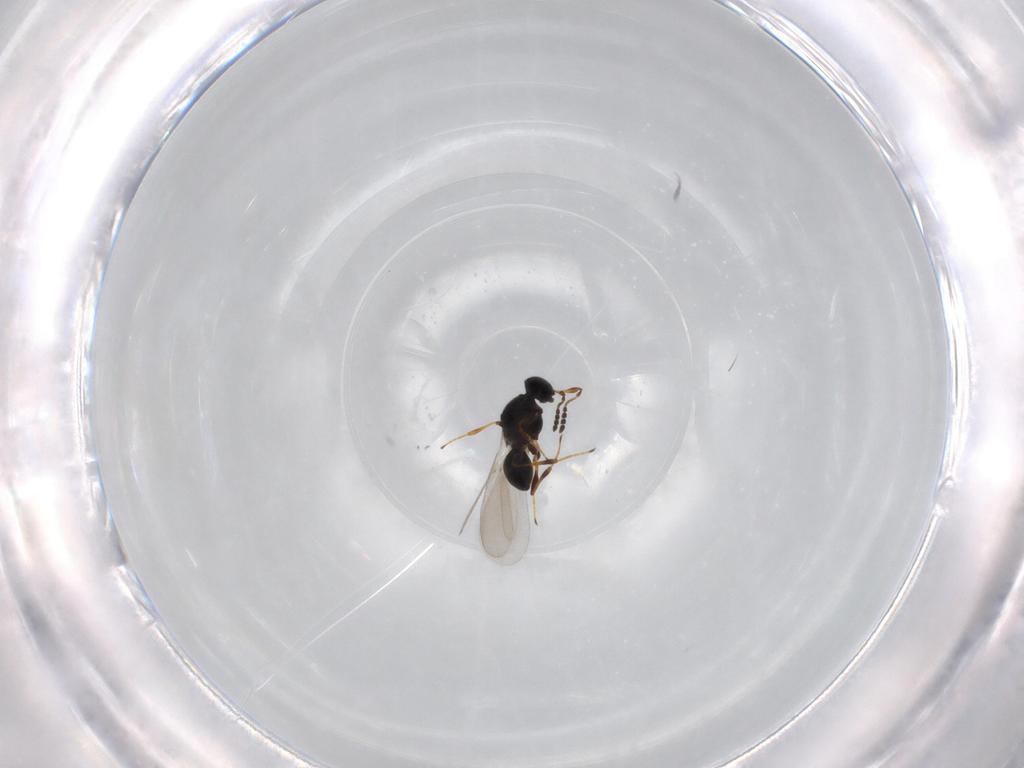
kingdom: Animalia
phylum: Arthropoda
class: Insecta
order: Hymenoptera
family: Platygastridae
